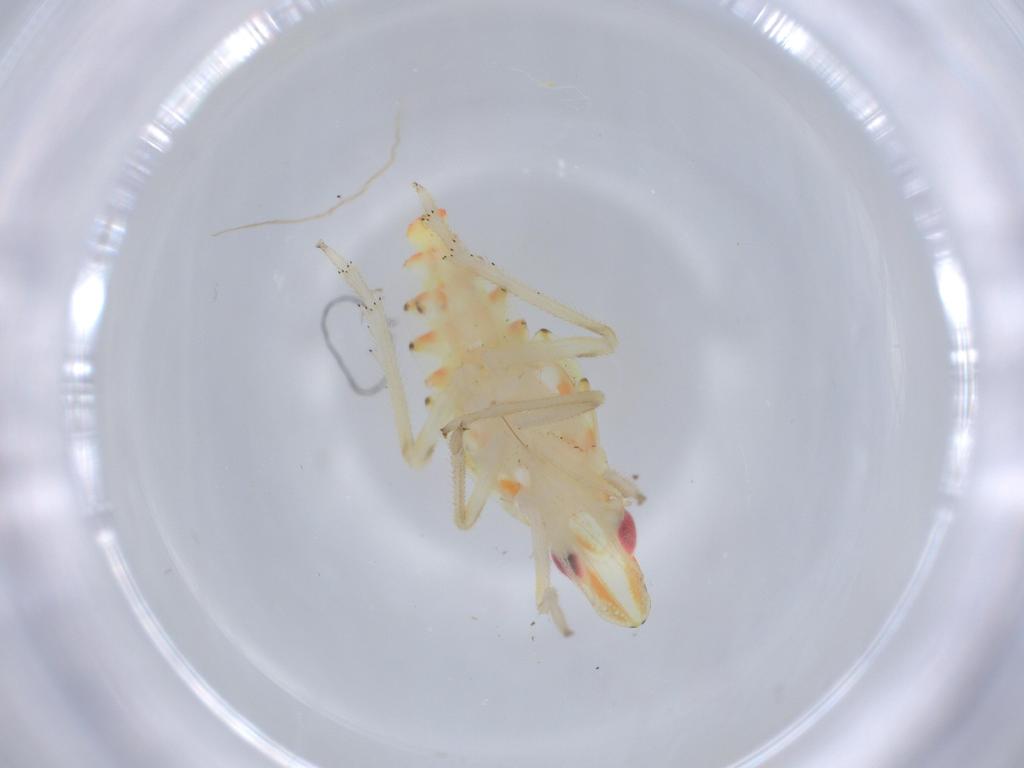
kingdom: Animalia
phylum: Arthropoda
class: Insecta
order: Hemiptera
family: Tropiduchidae
